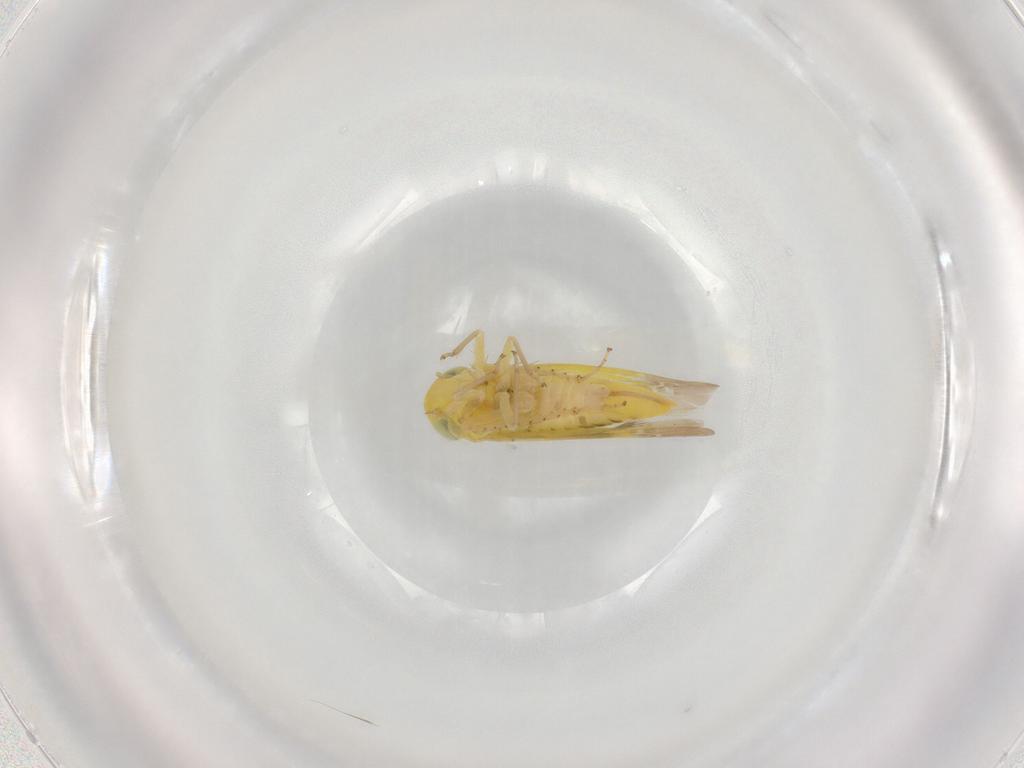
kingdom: Animalia
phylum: Arthropoda
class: Insecta
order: Hemiptera
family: Cicadellidae
